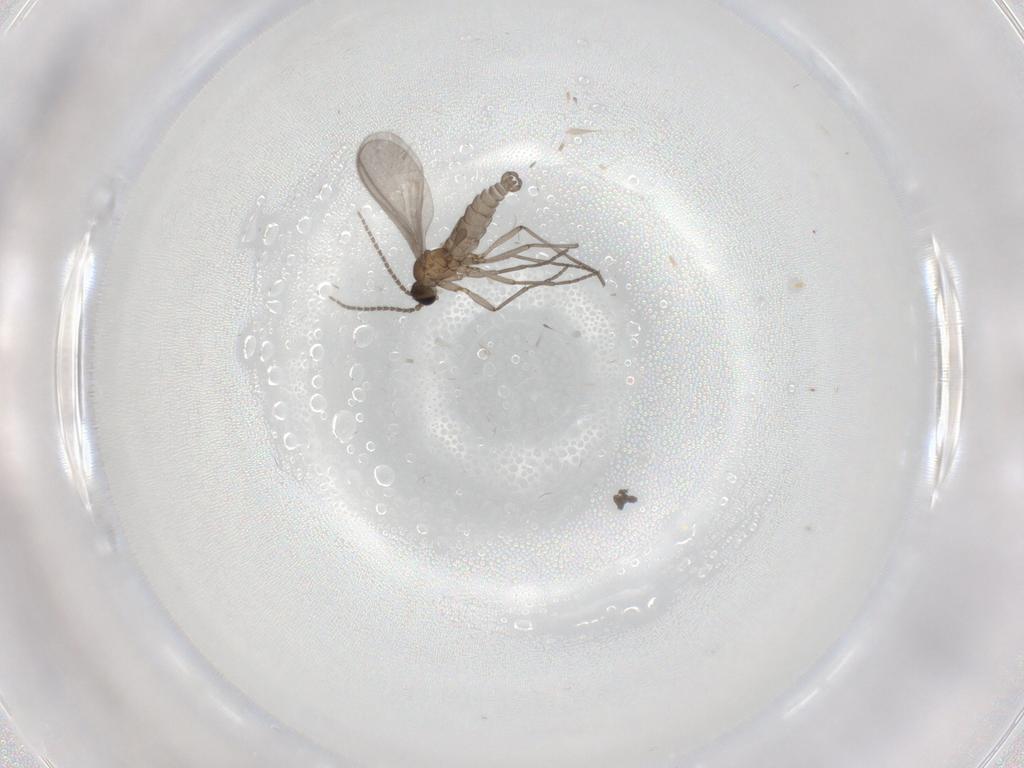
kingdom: Animalia
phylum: Arthropoda
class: Insecta
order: Diptera
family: Sciaridae
